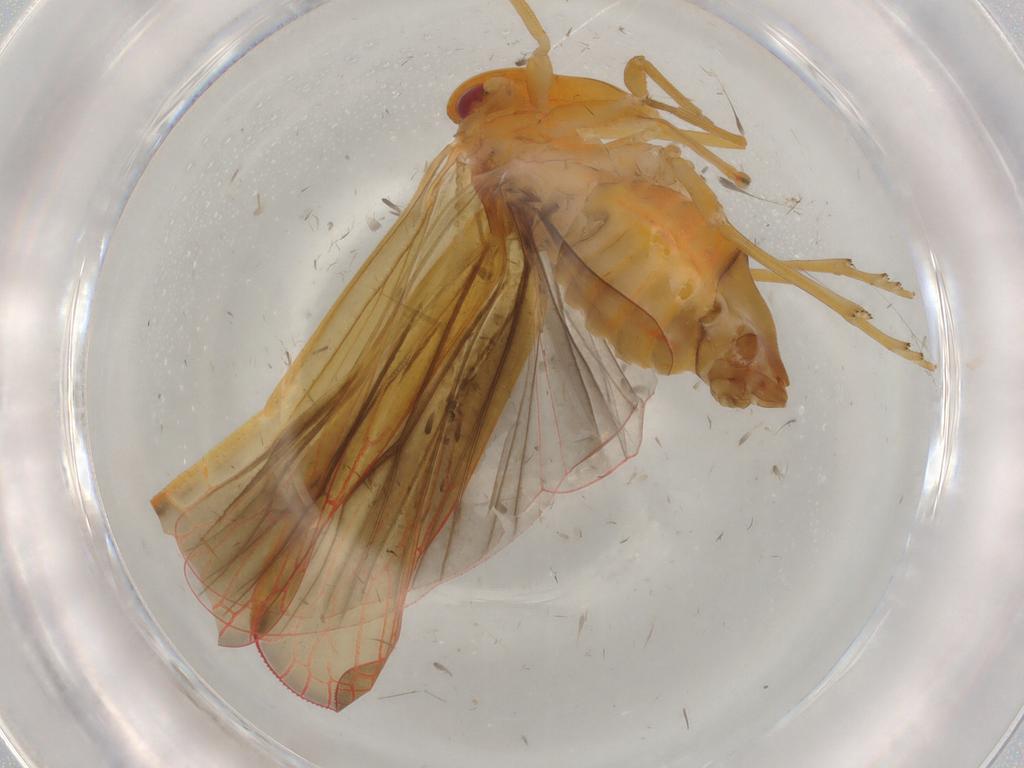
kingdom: Animalia
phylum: Arthropoda
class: Insecta
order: Hemiptera
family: Derbidae
